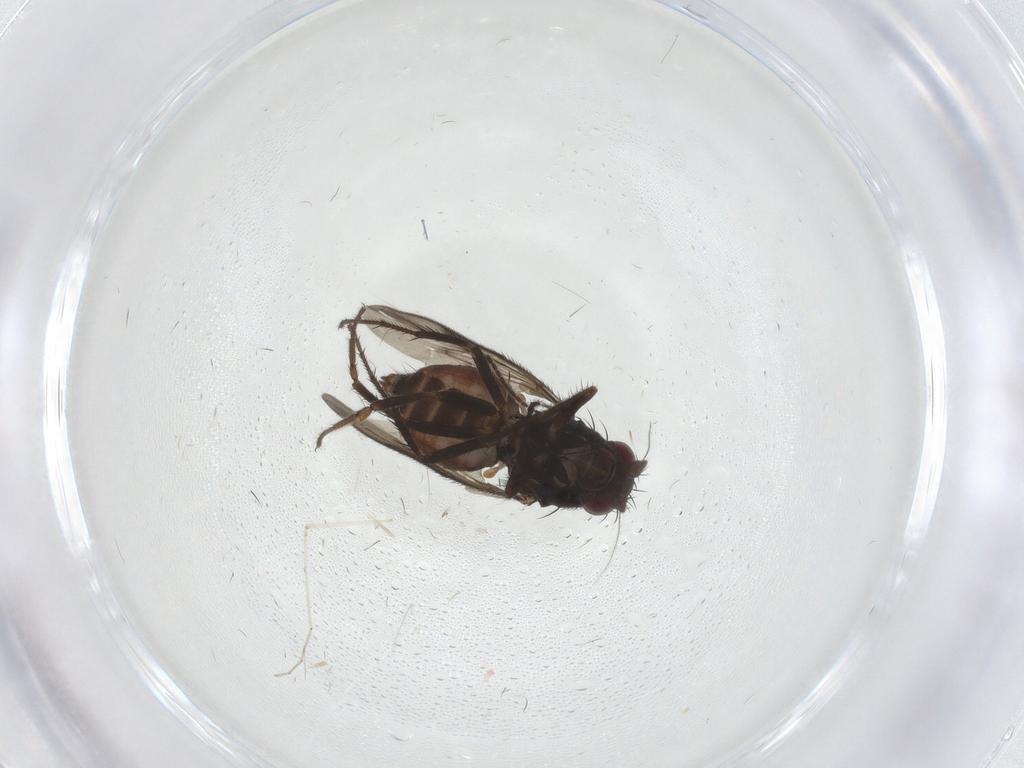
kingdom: Animalia
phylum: Arthropoda
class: Insecta
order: Diptera
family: Sphaeroceridae
